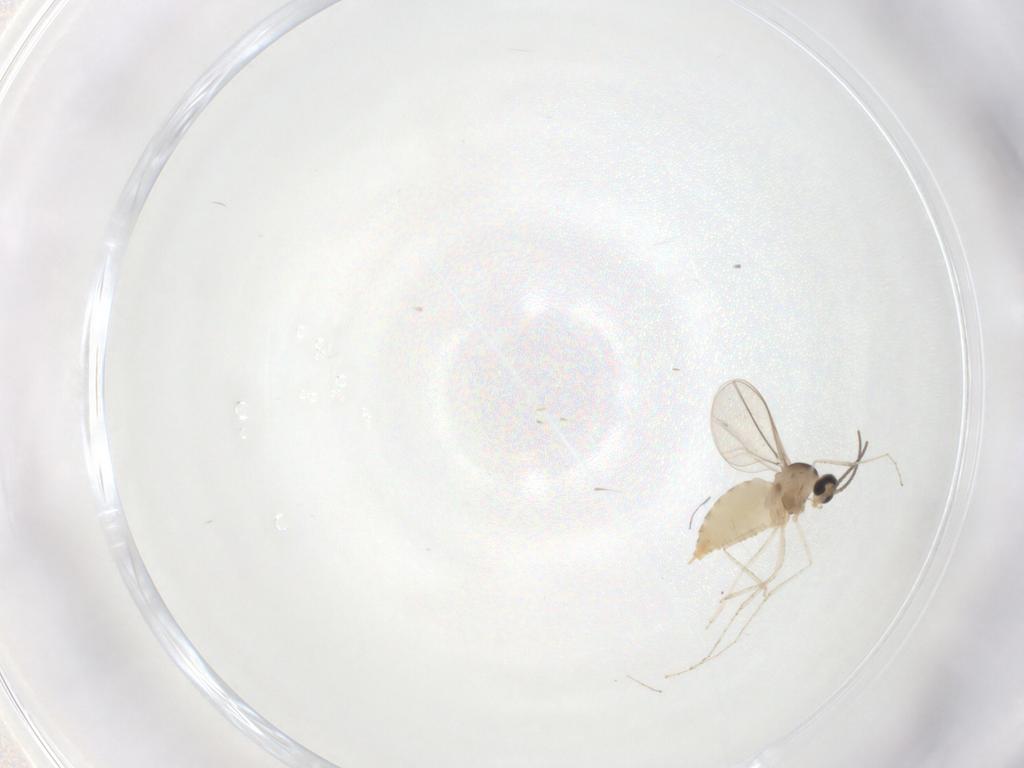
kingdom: Animalia
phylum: Arthropoda
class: Insecta
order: Diptera
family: Cecidomyiidae
